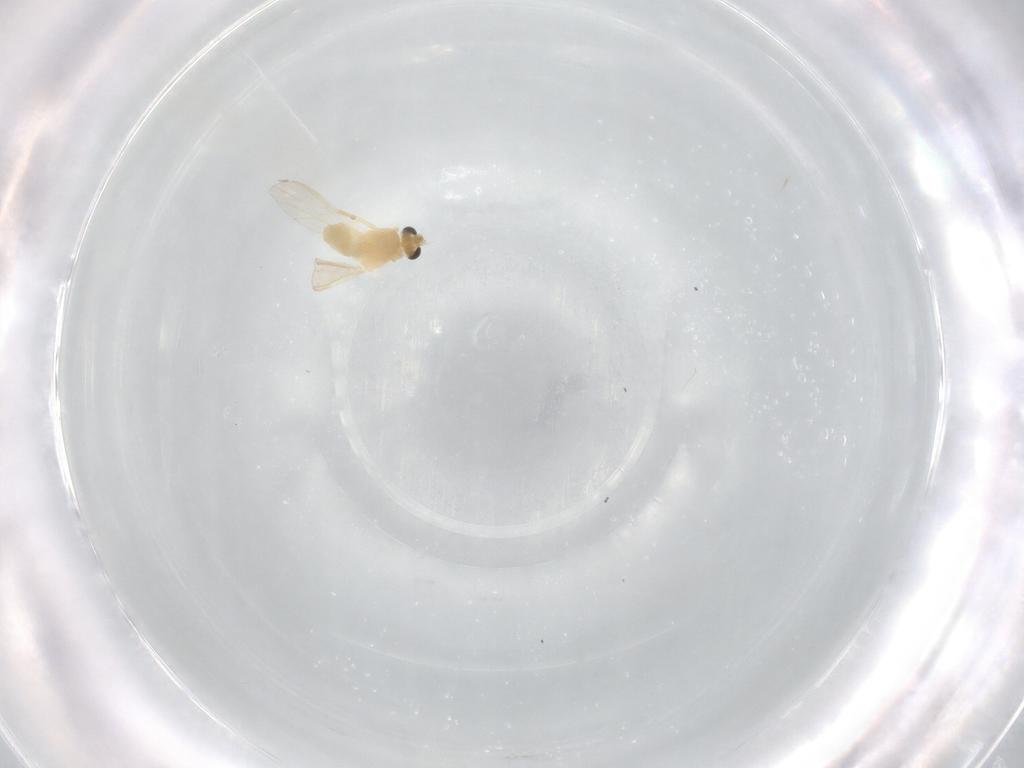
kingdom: Animalia
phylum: Arthropoda
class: Insecta
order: Diptera
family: Chironomidae
